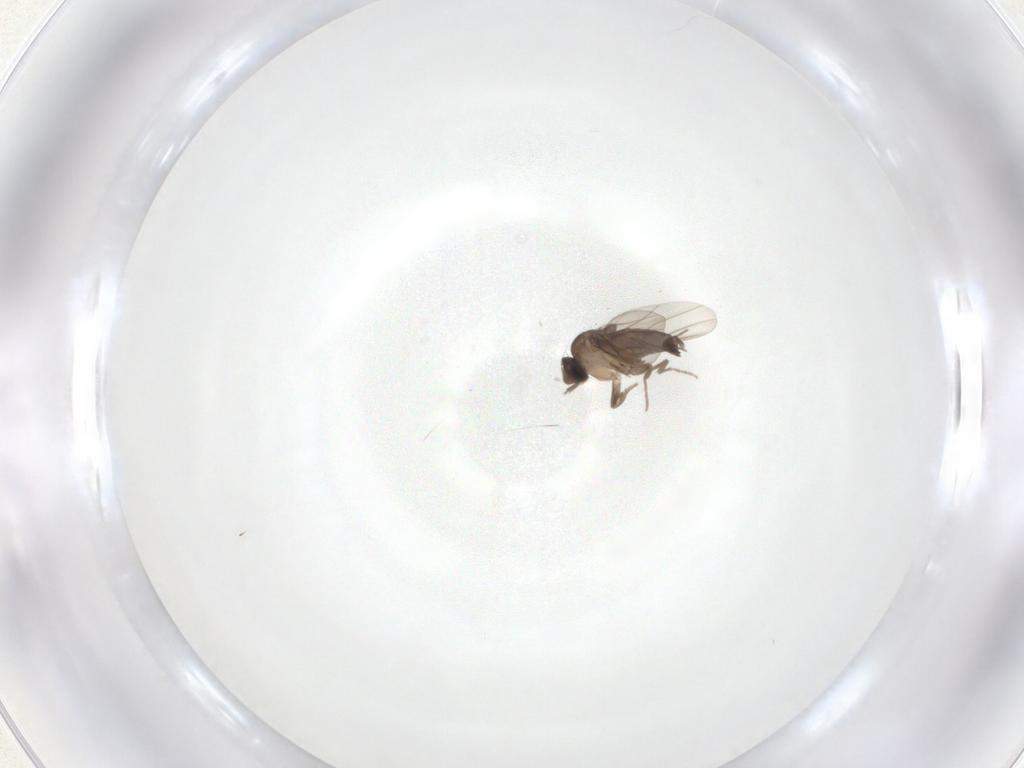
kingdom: Animalia
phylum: Arthropoda
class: Insecta
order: Diptera
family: Phoridae
